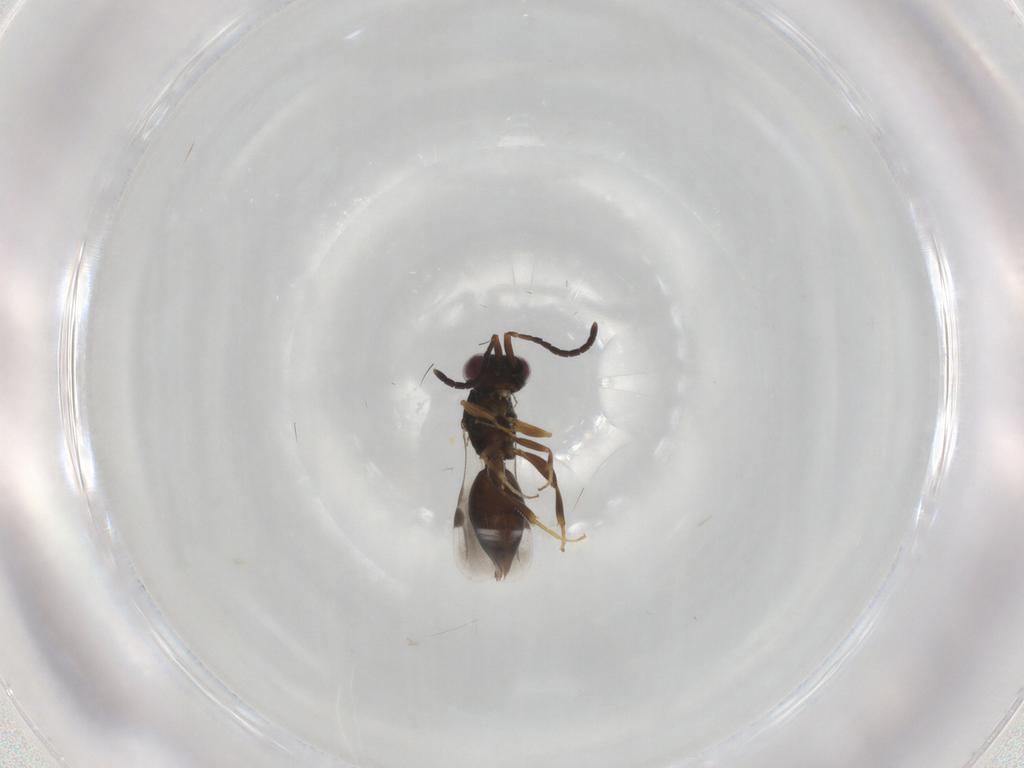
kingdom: Animalia
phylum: Arthropoda
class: Insecta
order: Hymenoptera
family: Megaspilidae
